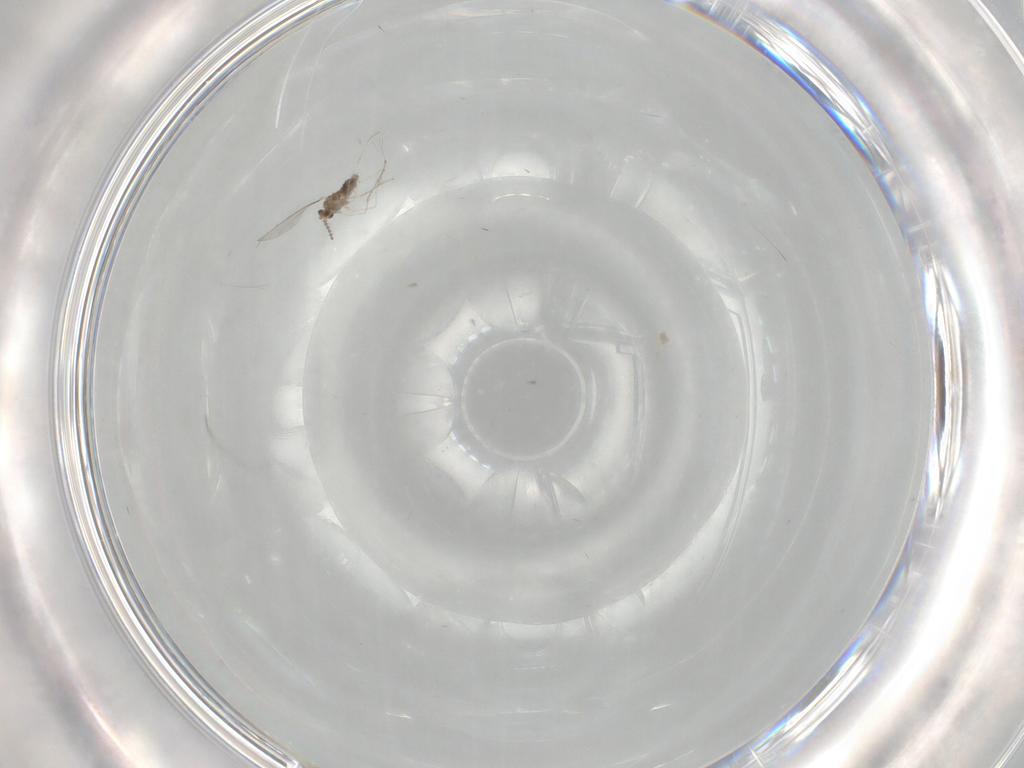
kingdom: Animalia
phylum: Arthropoda
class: Insecta
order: Diptera
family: Cecidomyiidae
